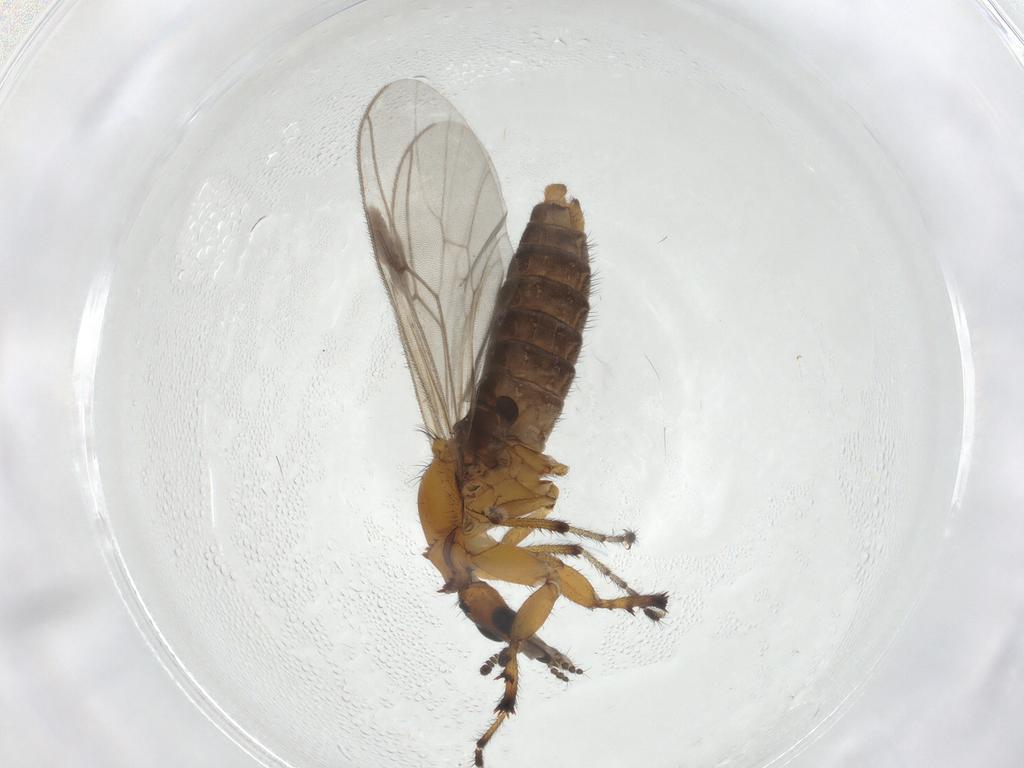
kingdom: Animalia
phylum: Arthropoda
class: Insecta
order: Diptera
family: Bibionidae
